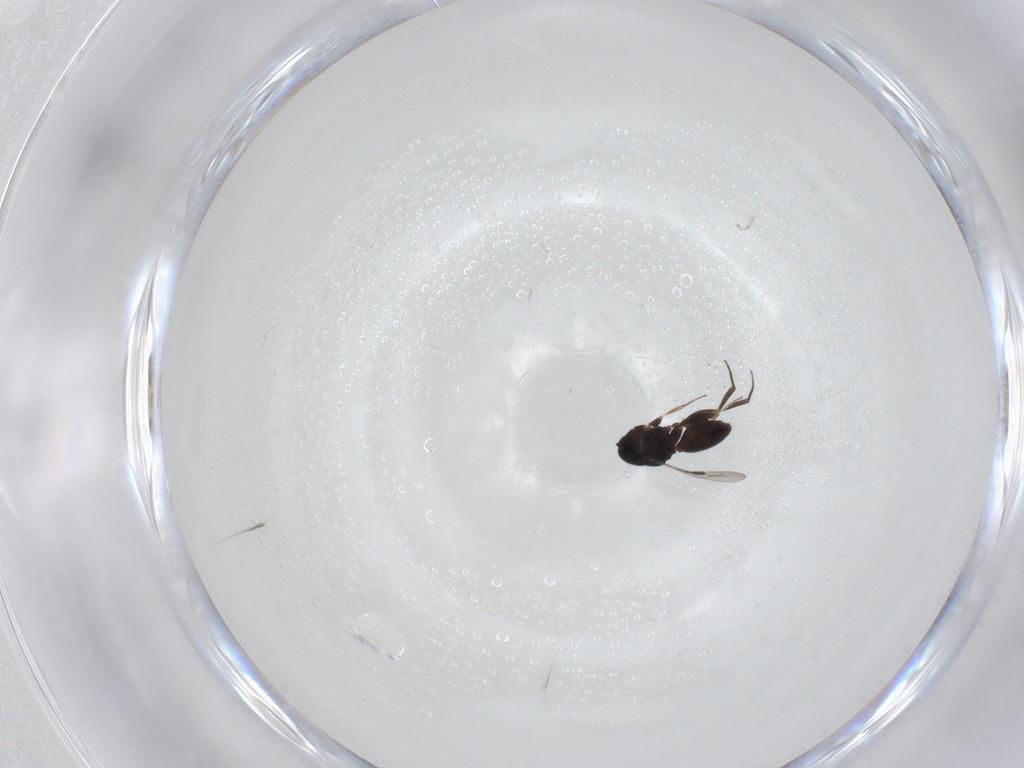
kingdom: Animalia
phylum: Arthropoda
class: Insecta
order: Hymenoptera
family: Megaspilidae
